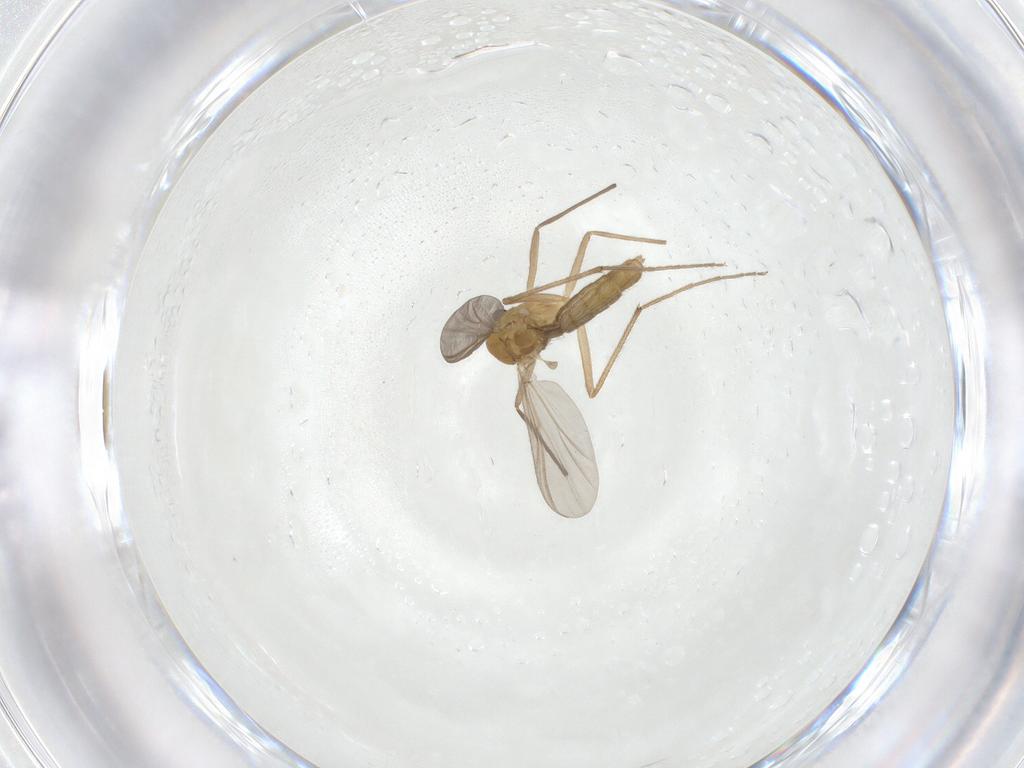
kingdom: Animalia
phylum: Arthropoda
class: Insecta
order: Diptera
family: Chironomidae
